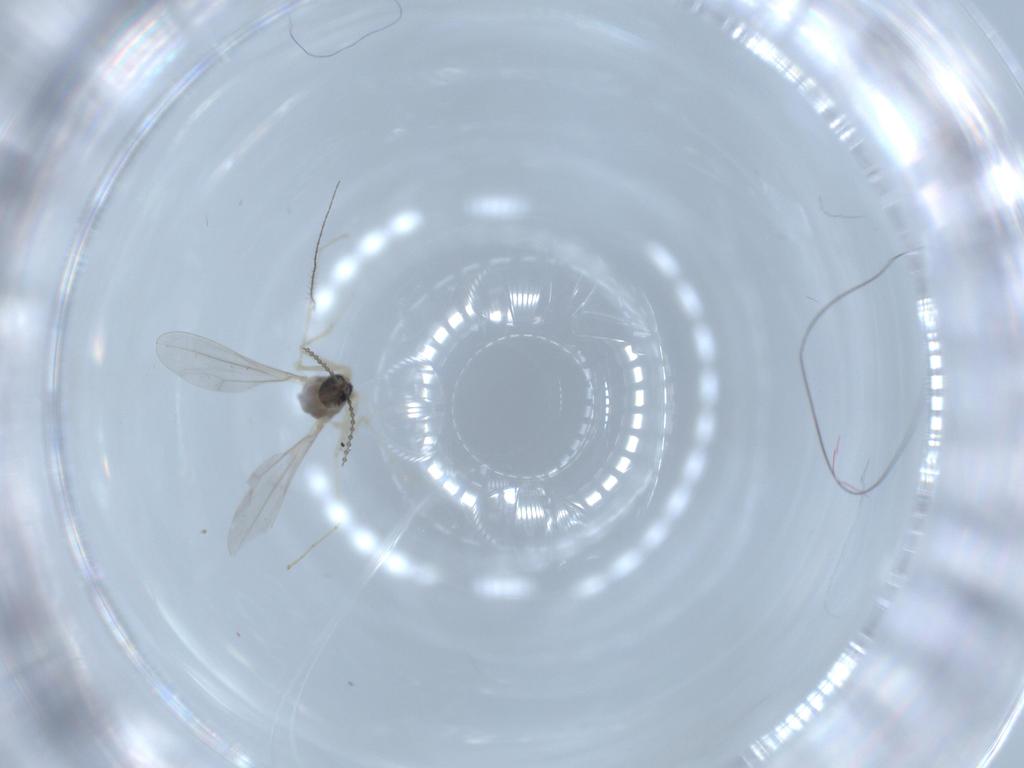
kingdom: Animalia
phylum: Arthropoda
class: Insecta
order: Diptera
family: Cecidomyiidae
